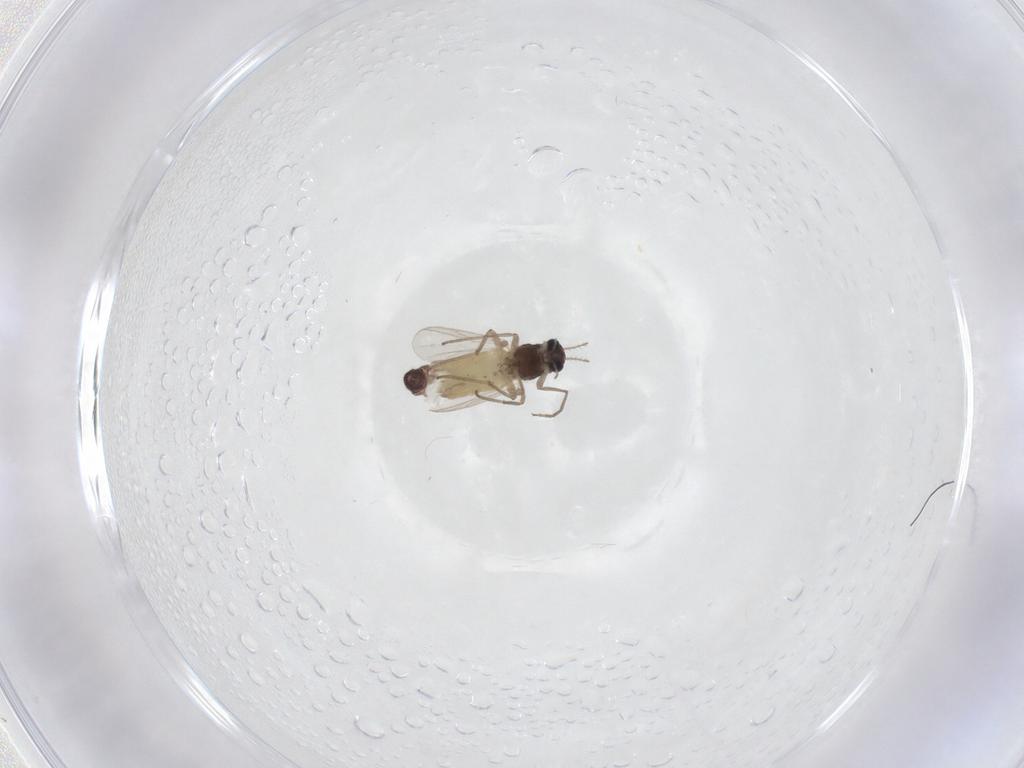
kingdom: Animalia
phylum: Arthropoda
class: Insecta
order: Diptera
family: Chironomidae
